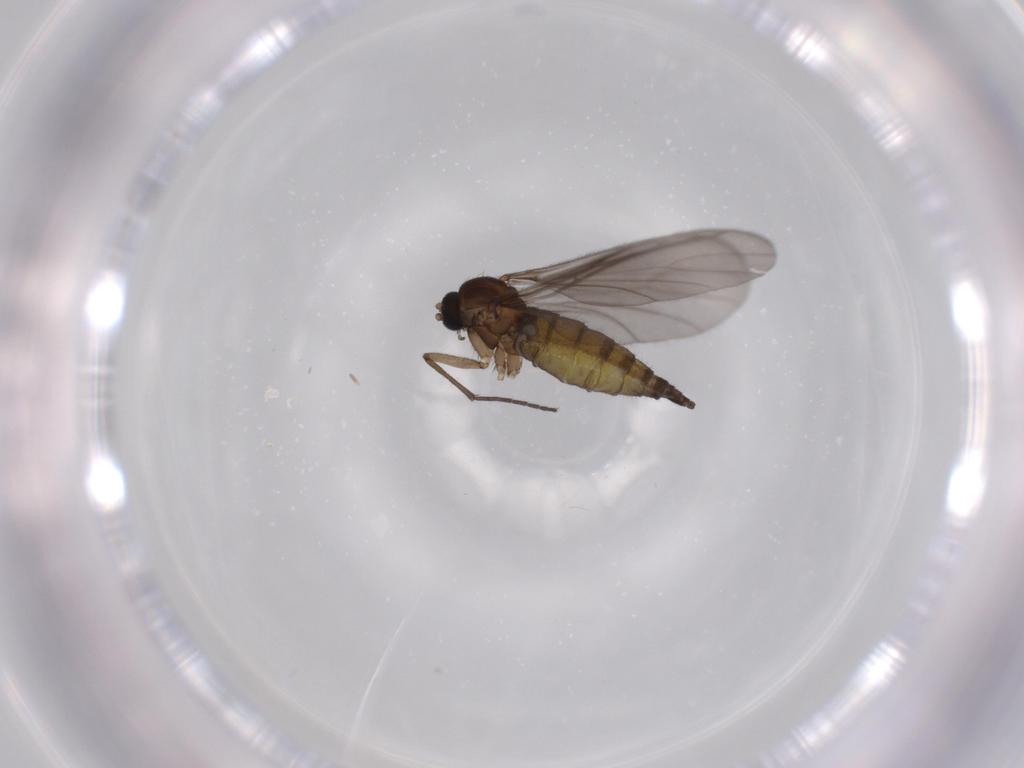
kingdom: Animalia
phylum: Arthropoda
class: Insecta
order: Diptera
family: Sciaridae
